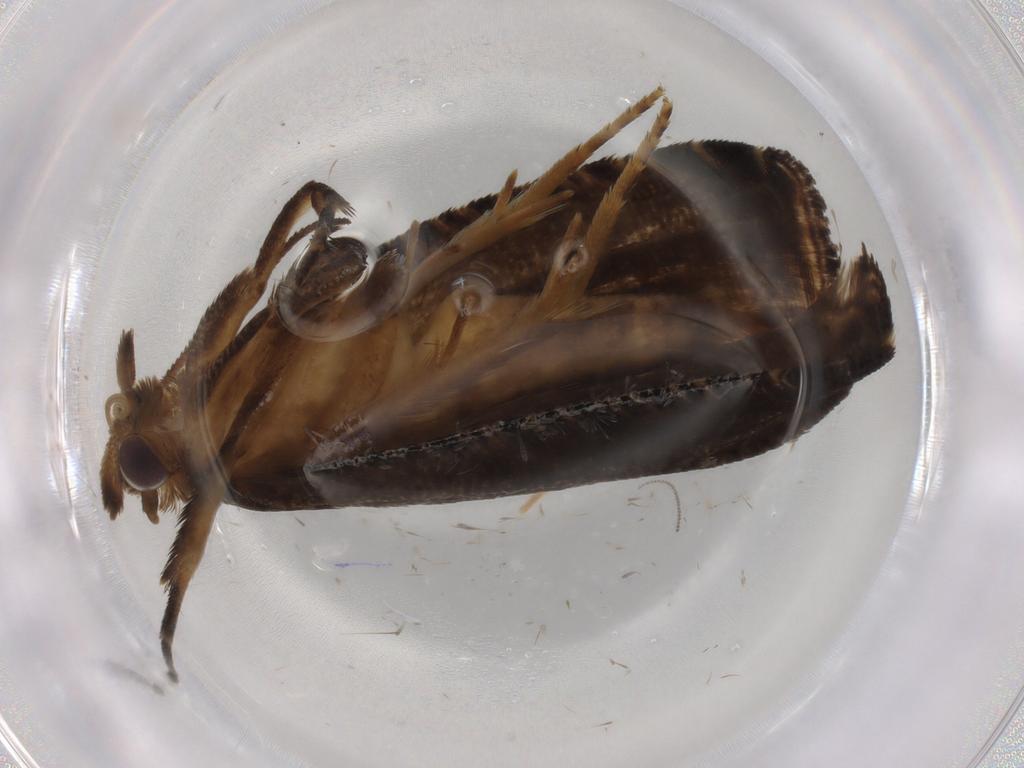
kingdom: Animalia
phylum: Arthropoda
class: Insecta
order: Lepidoptera
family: Tortricidae
